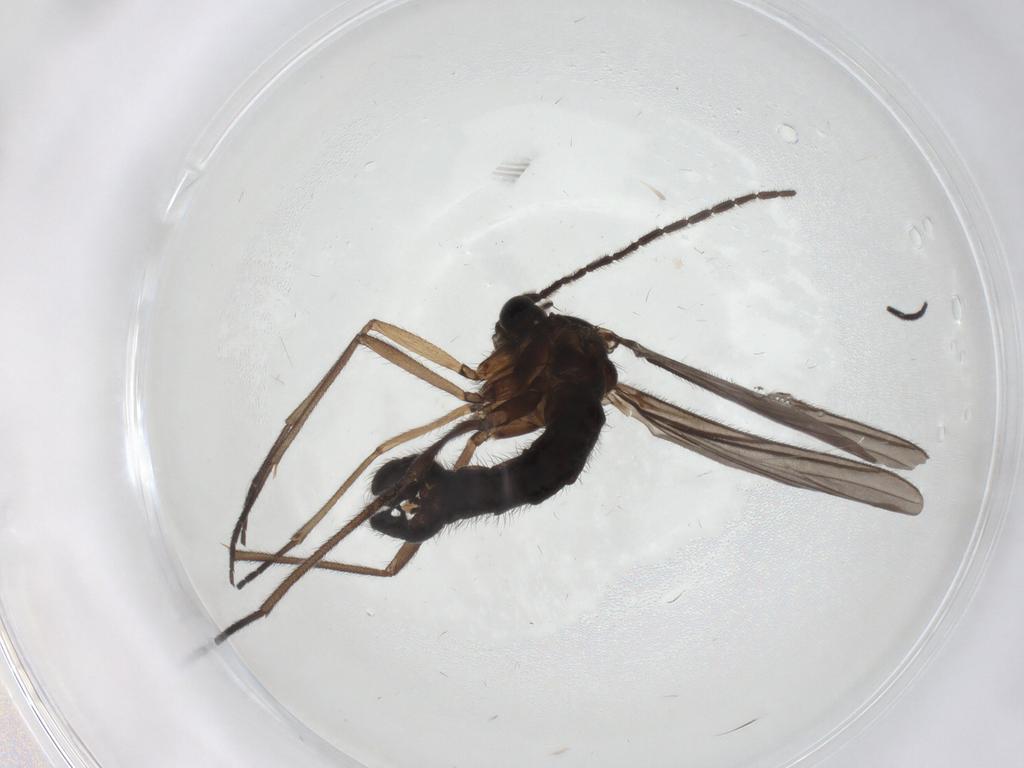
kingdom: Animalia
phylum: Arthropoda
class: Insecta
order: Diptera
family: Sciaridae
